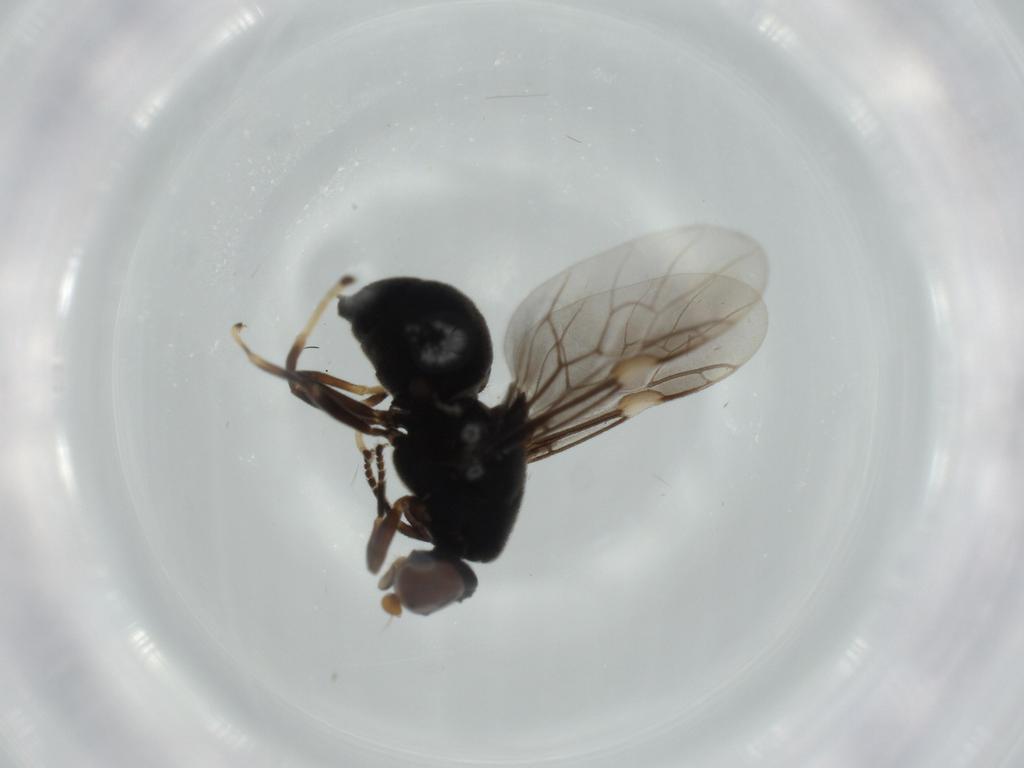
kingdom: Animalia
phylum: Arthropoda
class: Insecta
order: Diptera
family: Stratiomyidae
